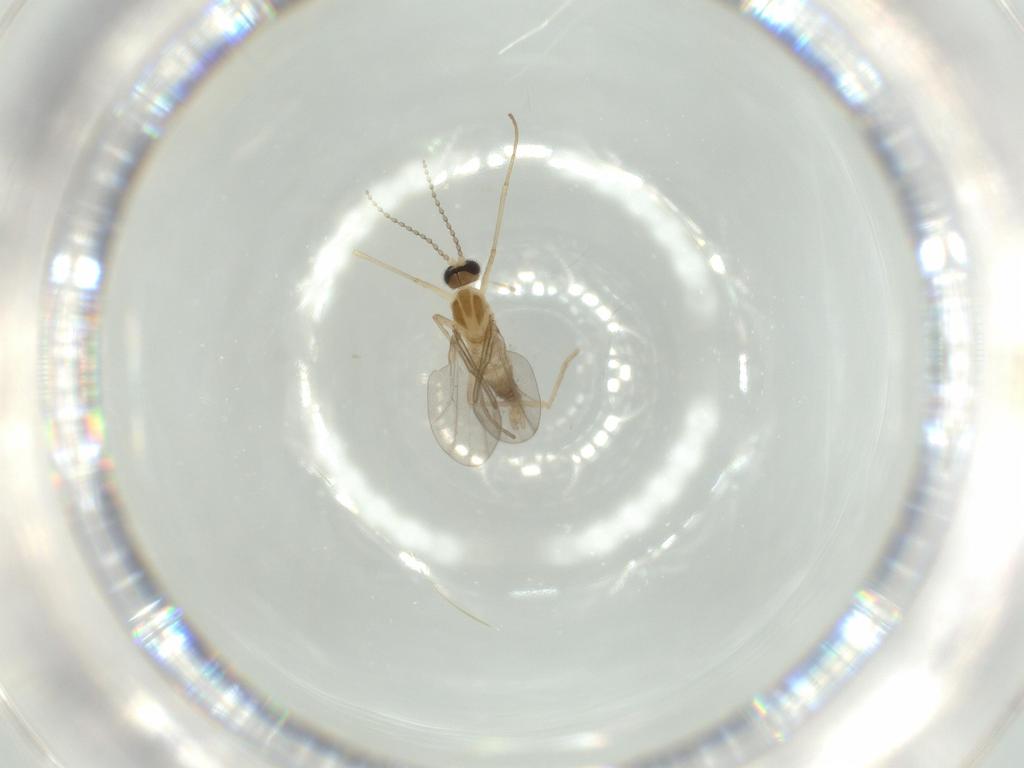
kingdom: Animalia
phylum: Arthropoda
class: Insecta
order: Diptera
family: Cecidomyiidae
